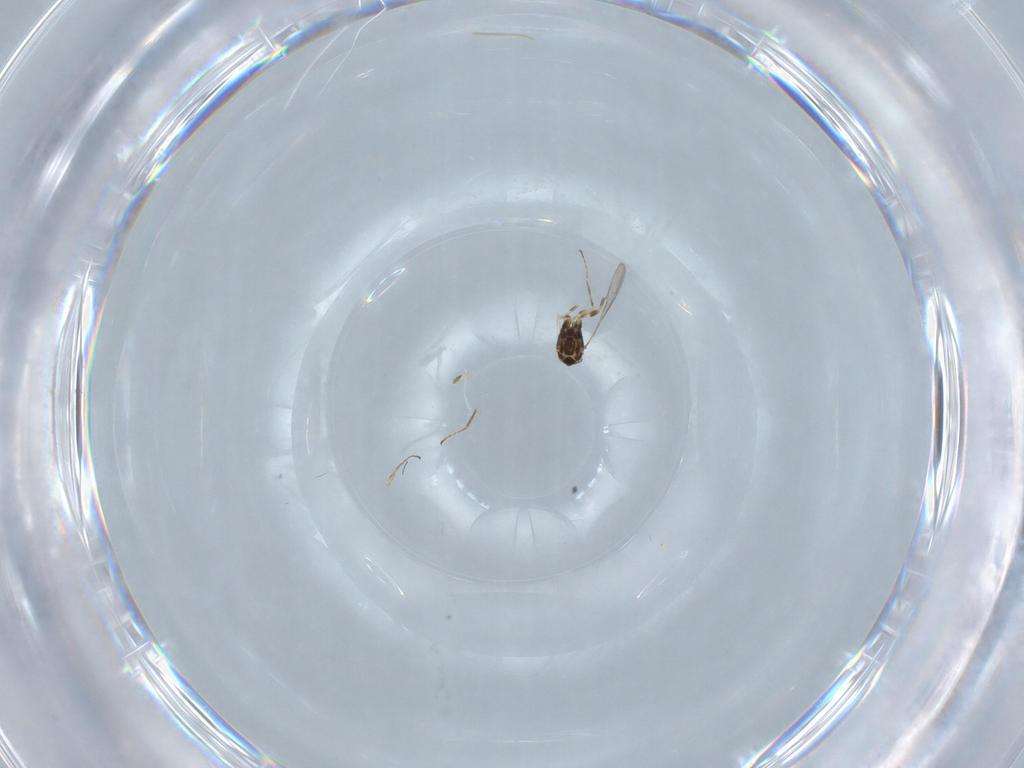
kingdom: Animalia
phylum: Arthropoda
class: Insecta
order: Hymenoptera
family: Mymaridae
